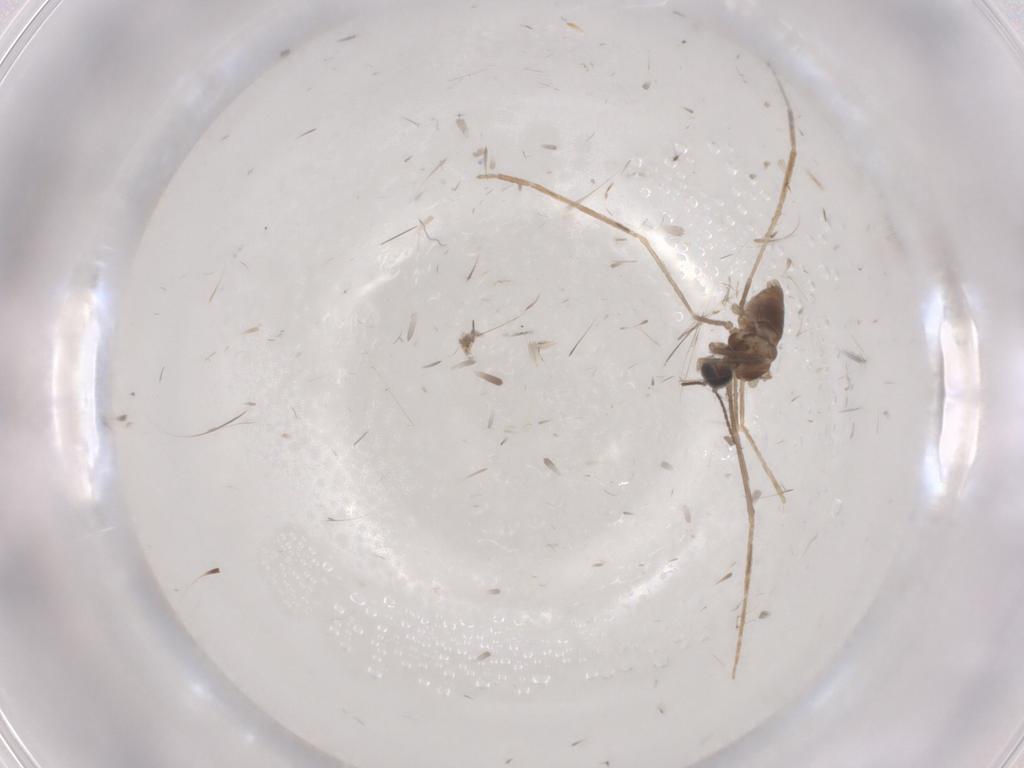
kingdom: Animalia
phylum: Arthropoda
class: Insecta
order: Diptera
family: Cecidomyiidae
